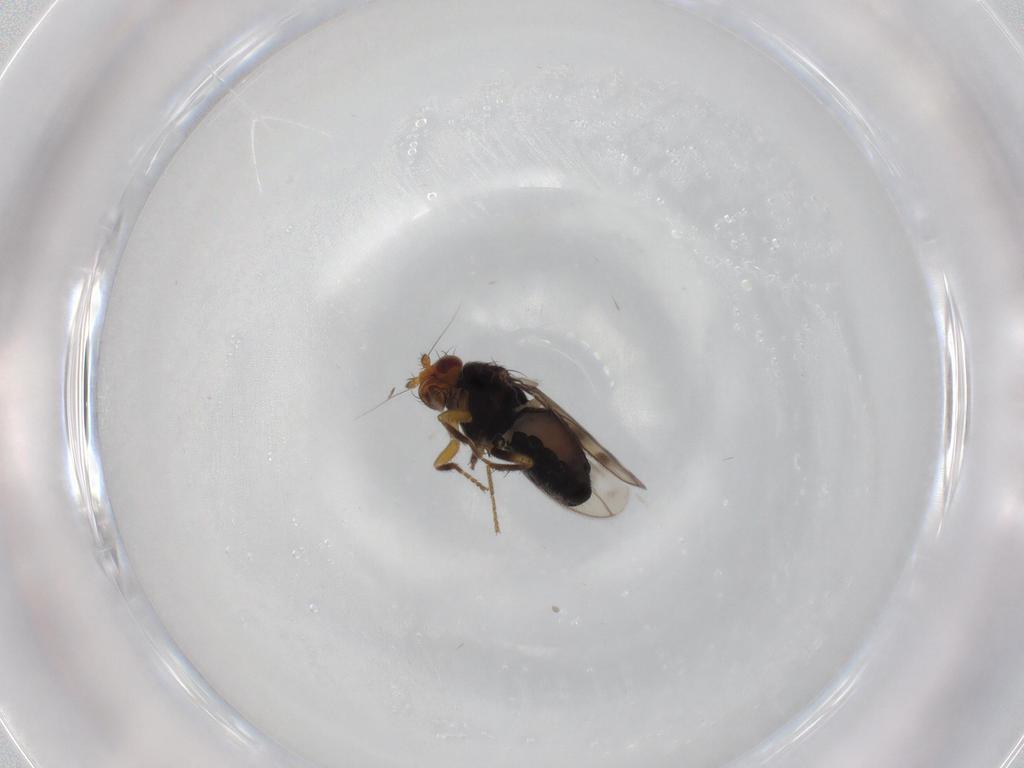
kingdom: Animalia
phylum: Arthropoda
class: Insecta
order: Diptera
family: Sphaeroceridae
